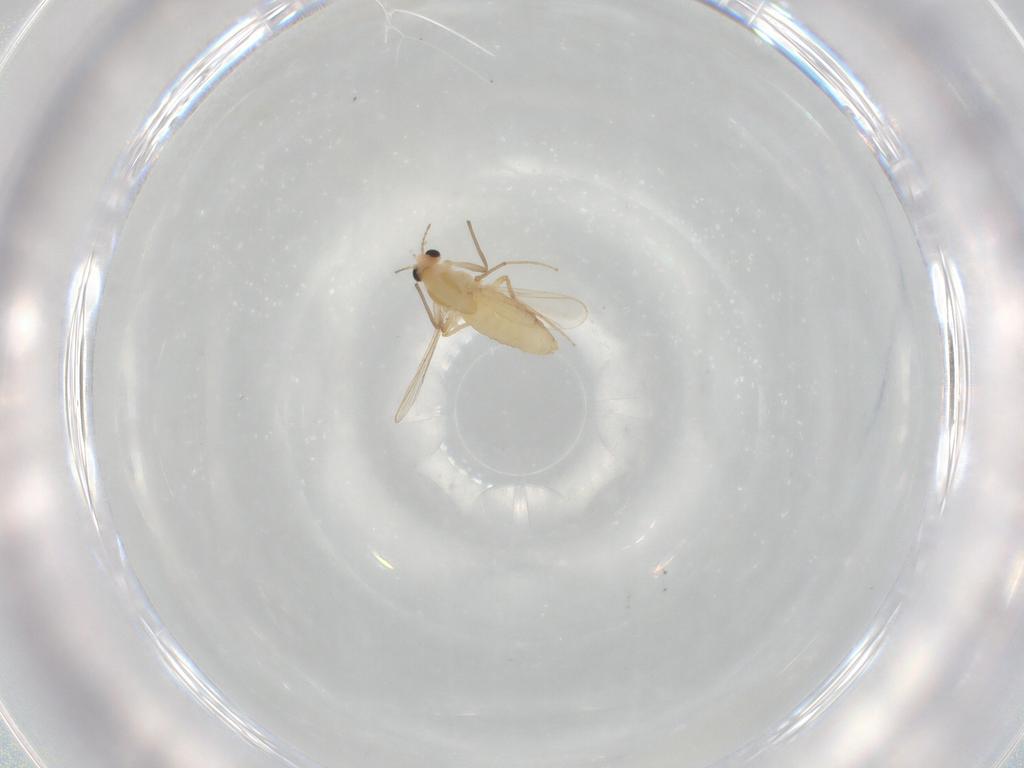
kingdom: Animalia
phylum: Arthropoda
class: Insecta
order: Diptera
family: Chironomidae
